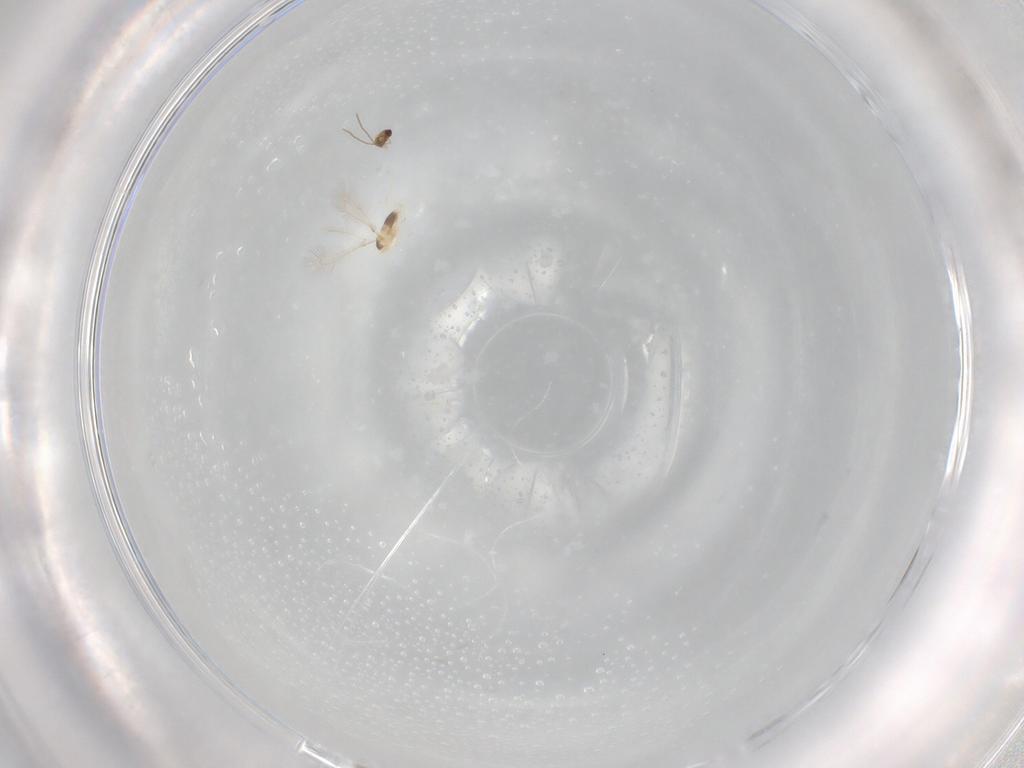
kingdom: Animalia
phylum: Arthropoda
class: Insecta
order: Hymenoptera
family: Mymaridae
